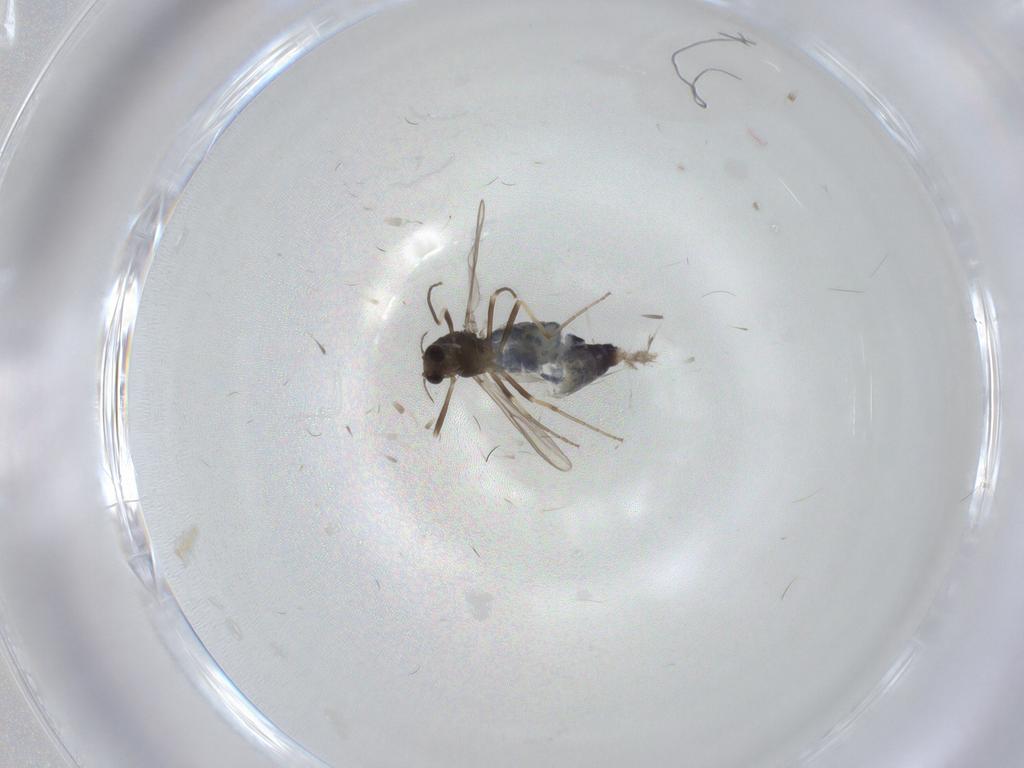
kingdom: Animalia
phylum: Arthropoda
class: Insecta
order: Diptera
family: Chironomidae
